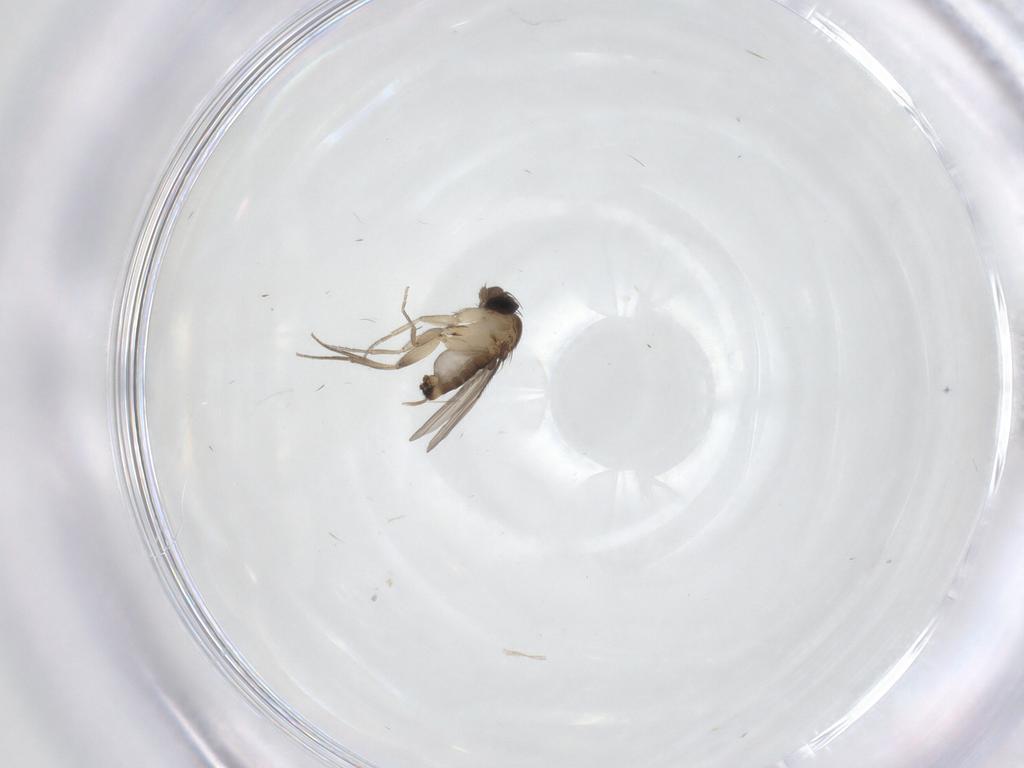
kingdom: Animalia
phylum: Arthropoda
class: Insecta
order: Diptera
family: Phoridae
